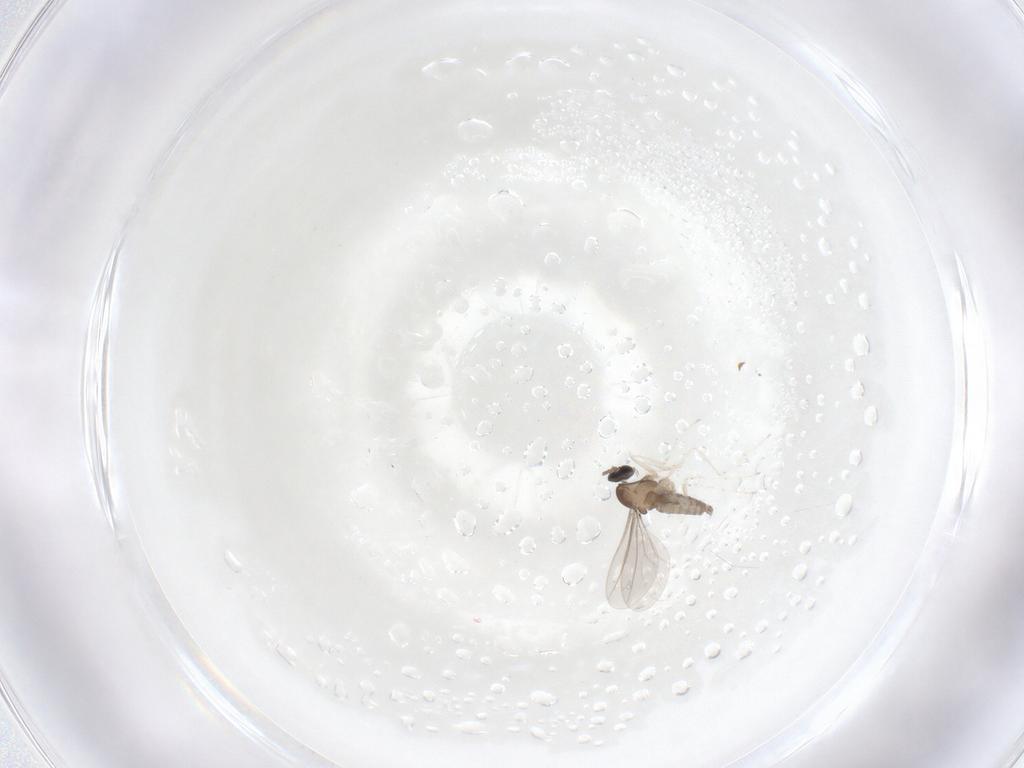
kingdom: Animalia
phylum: Arthropoda
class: Insecta
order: Diptera
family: Cecidomyiidae
